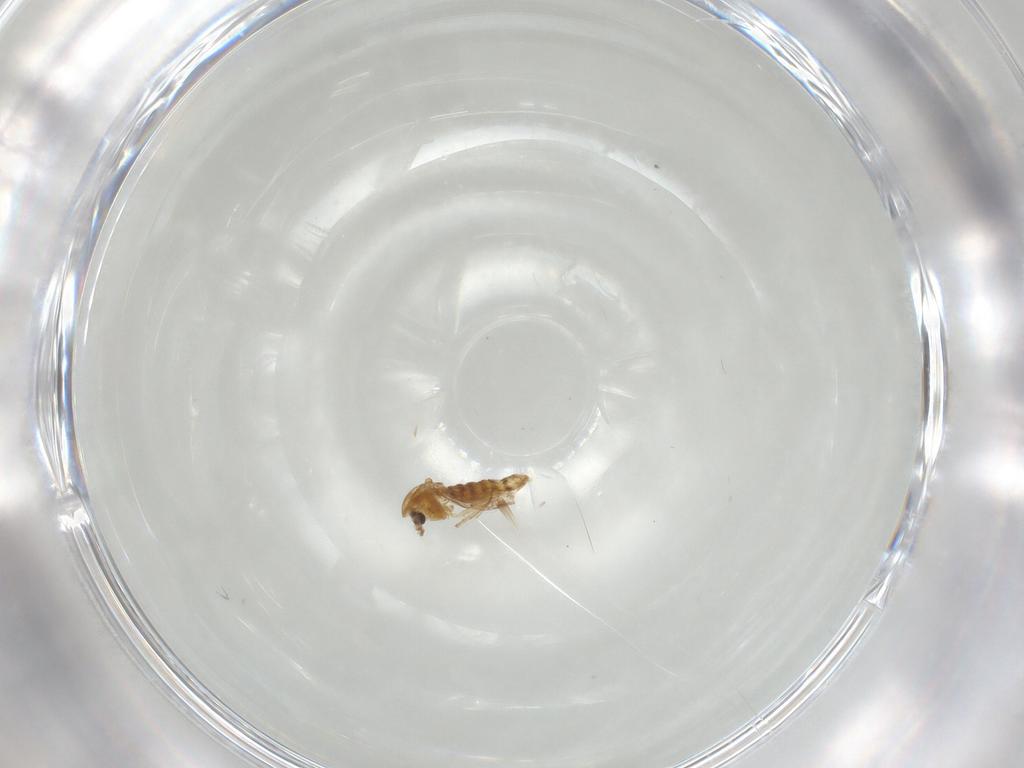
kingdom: Animalia
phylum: Arthropoda
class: Insecta
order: Diptera
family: Chironomidae
